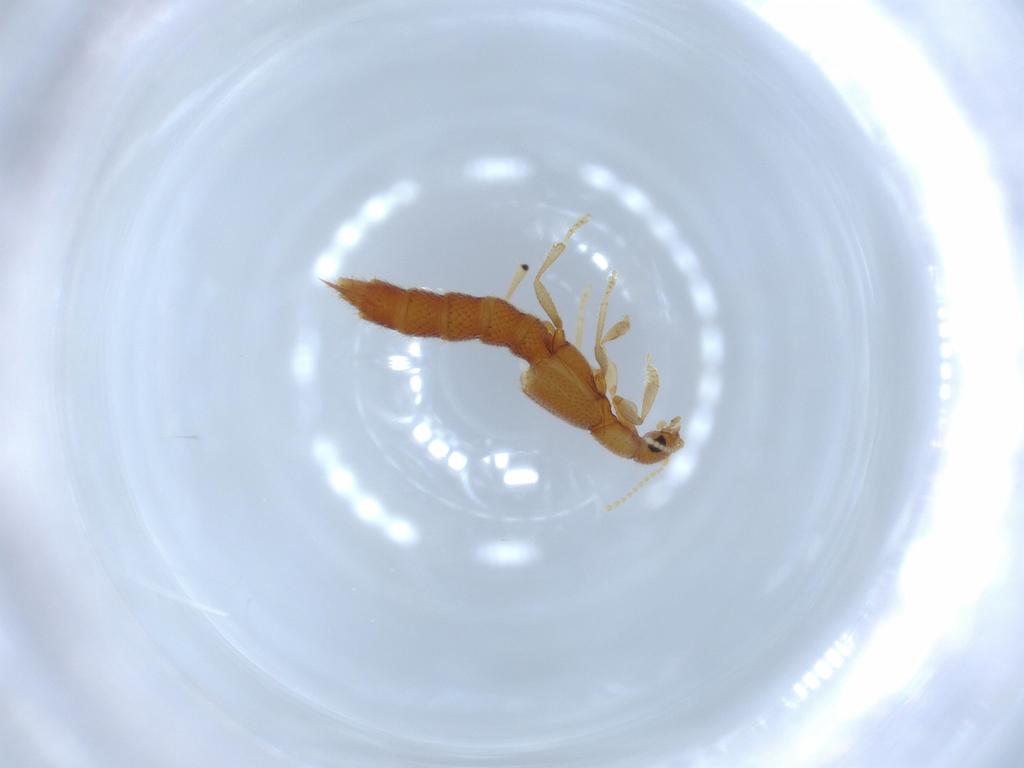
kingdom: Animalia
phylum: Arthropoda
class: Insecta
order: Coleoptera
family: Staphylinidae
